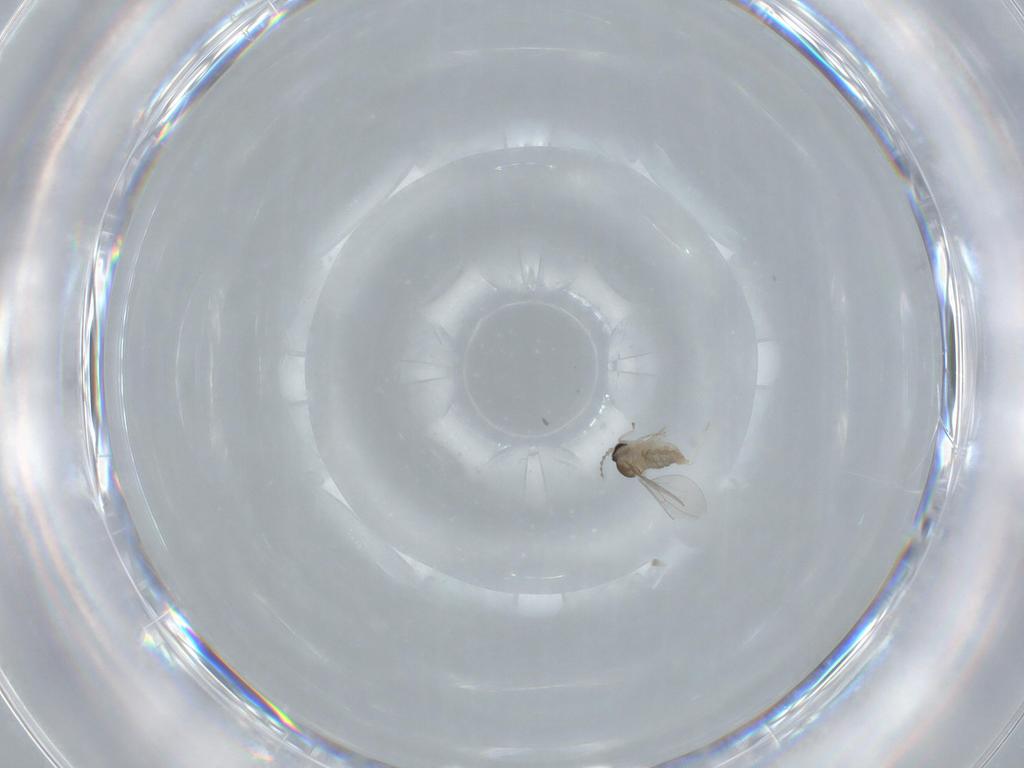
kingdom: Animalia
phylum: Arthropoda
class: Insecta
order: Diptera
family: Cecidomyiidae
